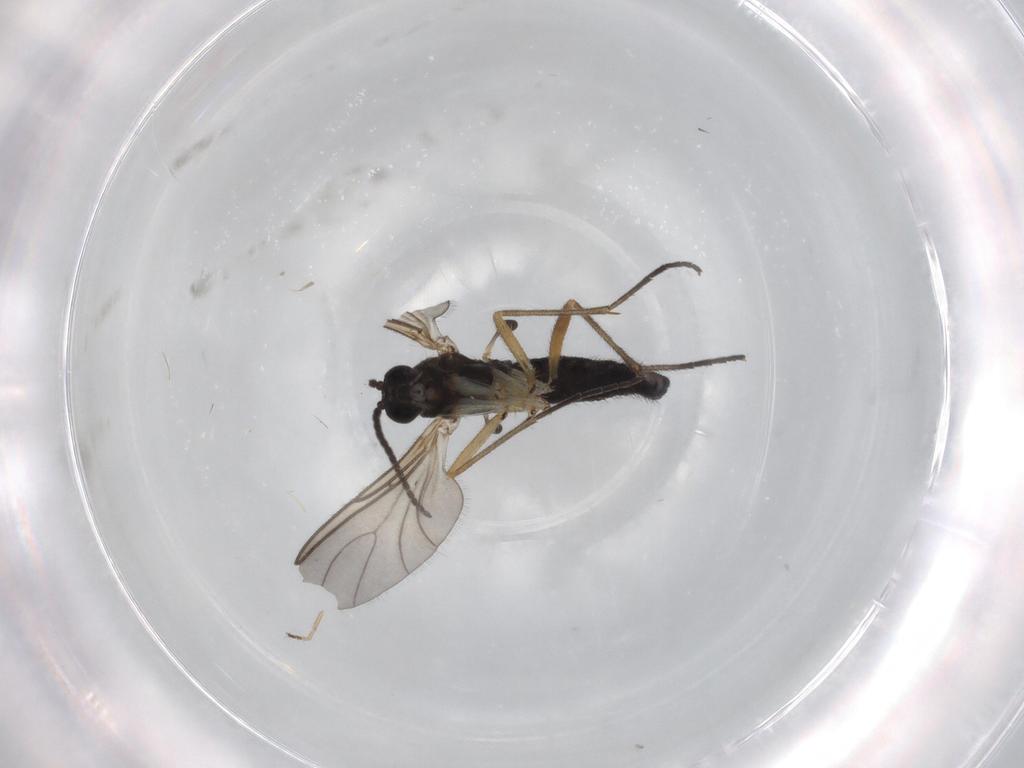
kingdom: Animalia
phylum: Arthropoda
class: Insecta
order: Diptera
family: Sciaridae
